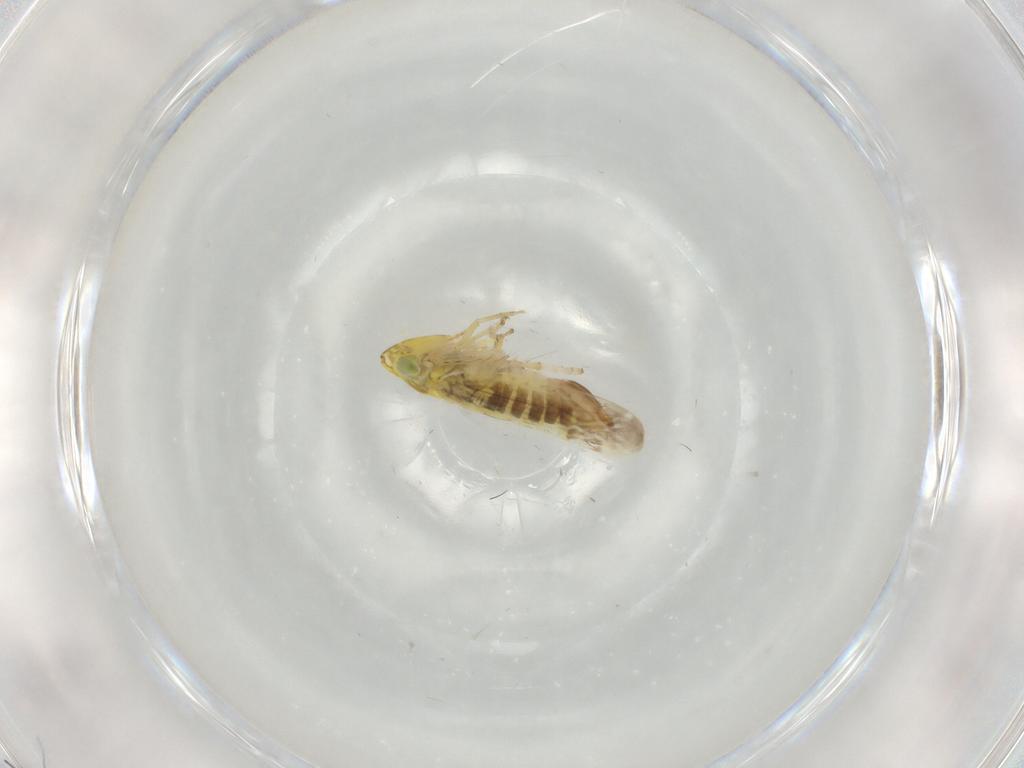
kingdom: Animalia
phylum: Arthropoda
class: Insecta
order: Hemiptera
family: Cicadellidae
